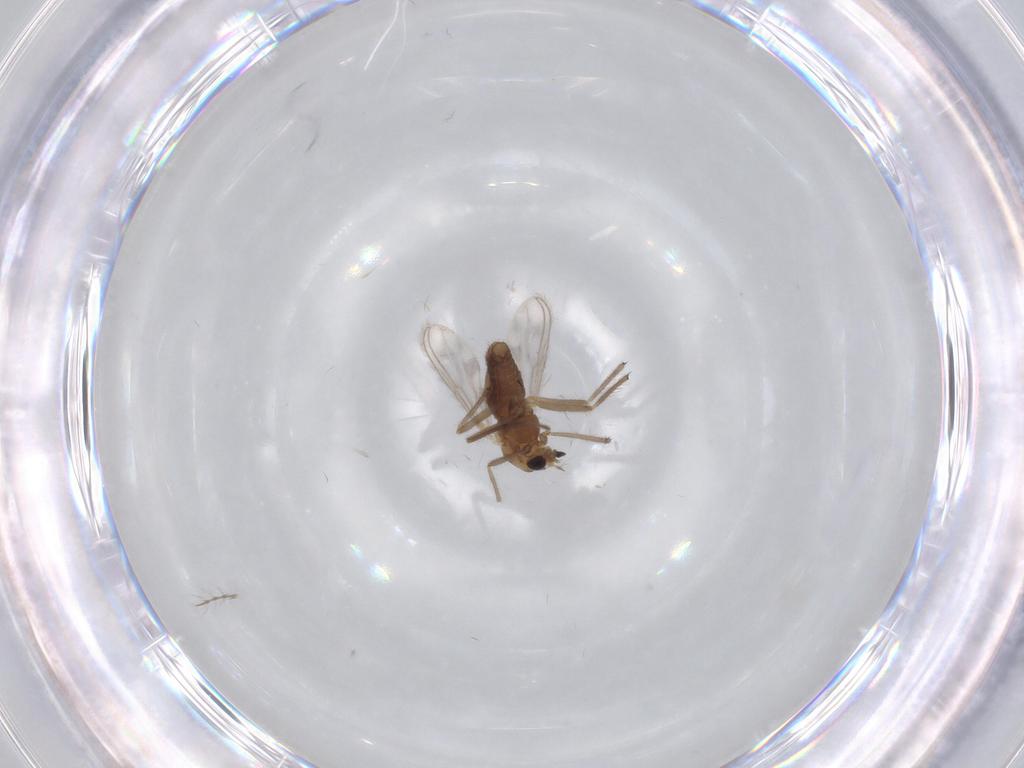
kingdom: Animalia
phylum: Arthropoda
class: Insecta
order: Diptera
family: Chironomidae
